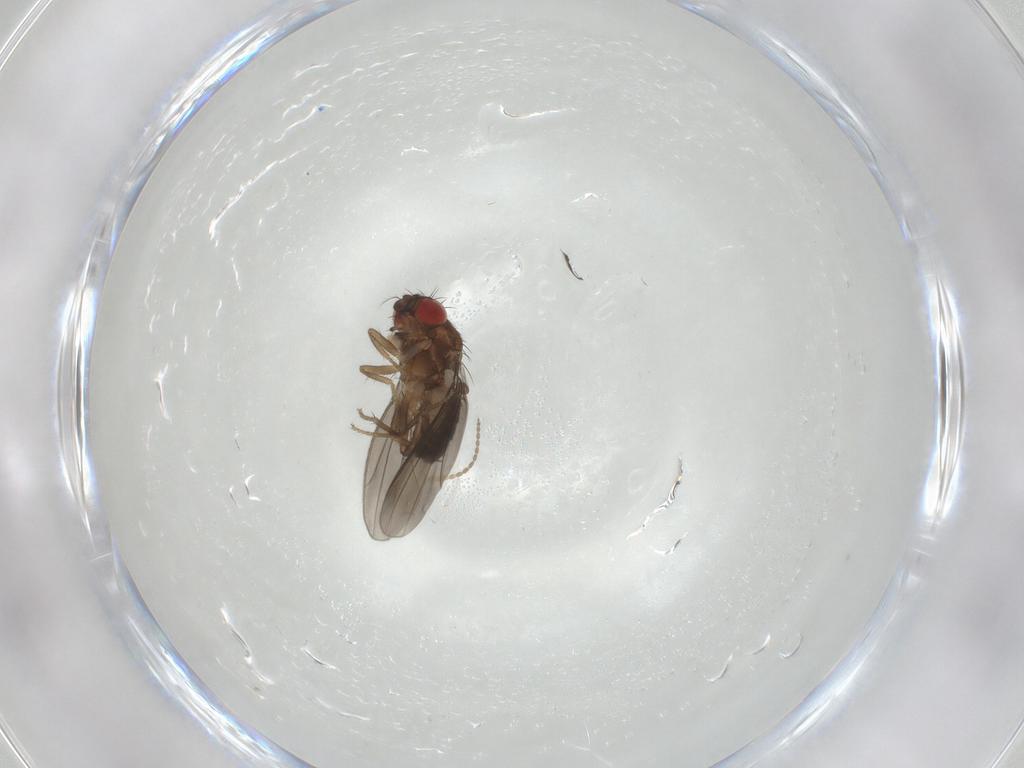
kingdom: Animalia
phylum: Arthropoda
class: Insecta
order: Diptera
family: Drosophilidae
